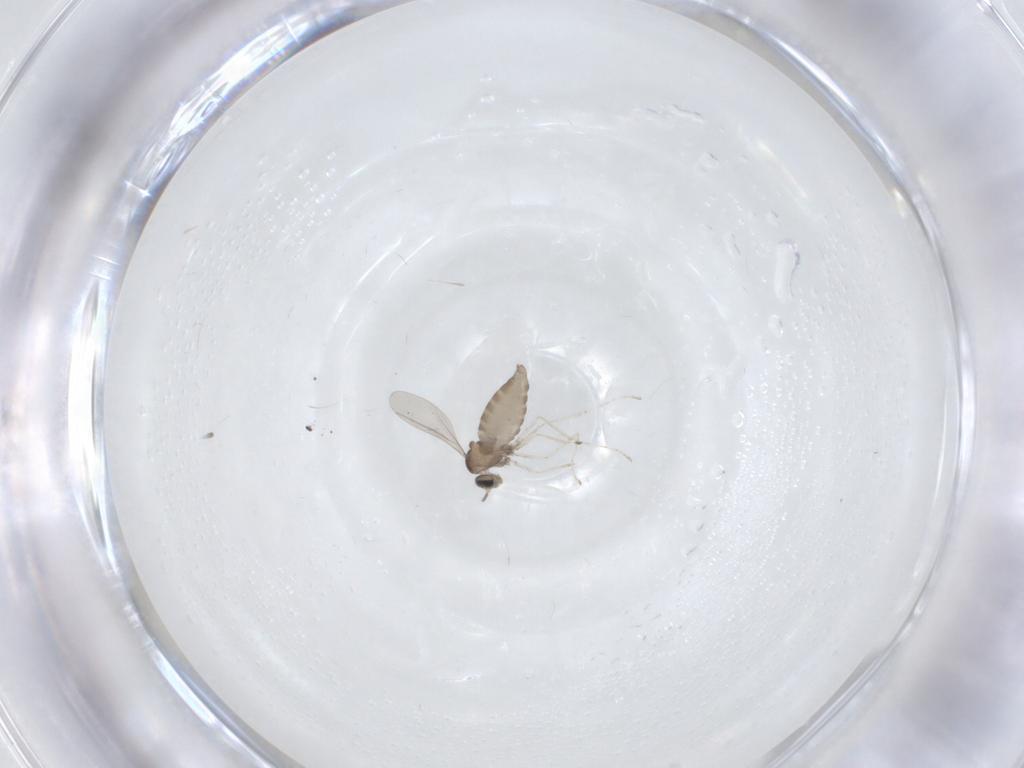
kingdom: Animalia
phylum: Arthropoda
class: Insecta
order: Diptera
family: Cecidomyiidae
